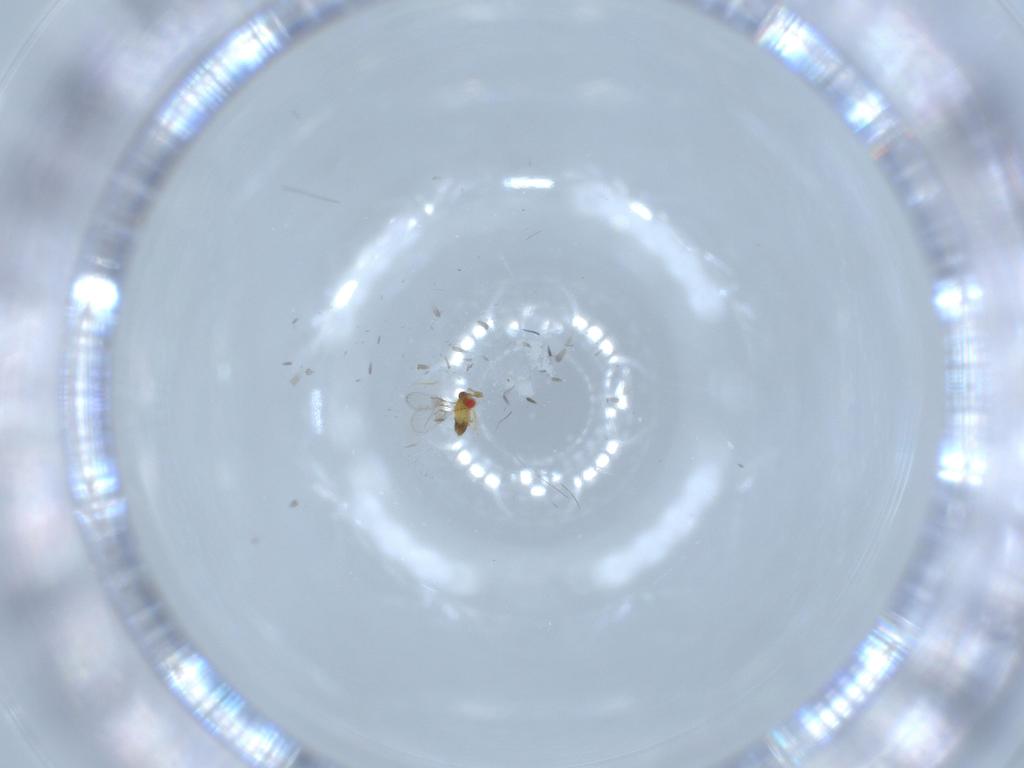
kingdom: Animalia
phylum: Arthropoda
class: Insecta
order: Hymenoptera
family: Trichogrammatidae
